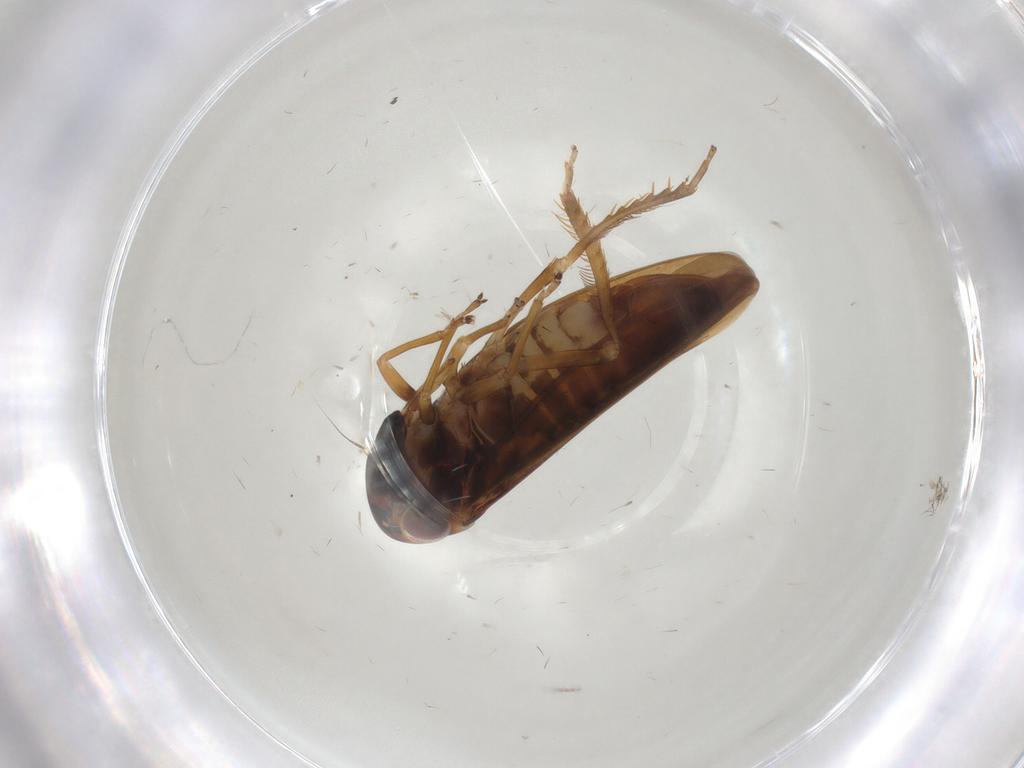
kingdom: Animalia
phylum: Arthropoda
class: Insecta
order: Hemiptera
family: Cicadellidae
